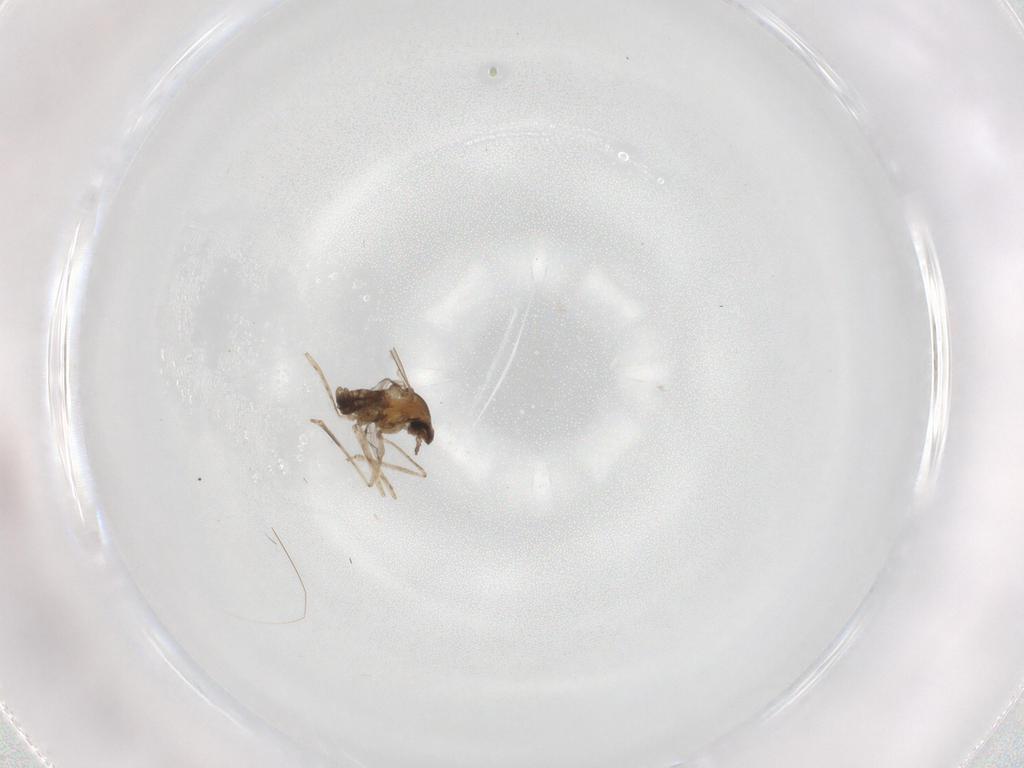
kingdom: Animalia
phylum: Arthropoda
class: Insecta
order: Diptera
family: Cecidomyiidae
